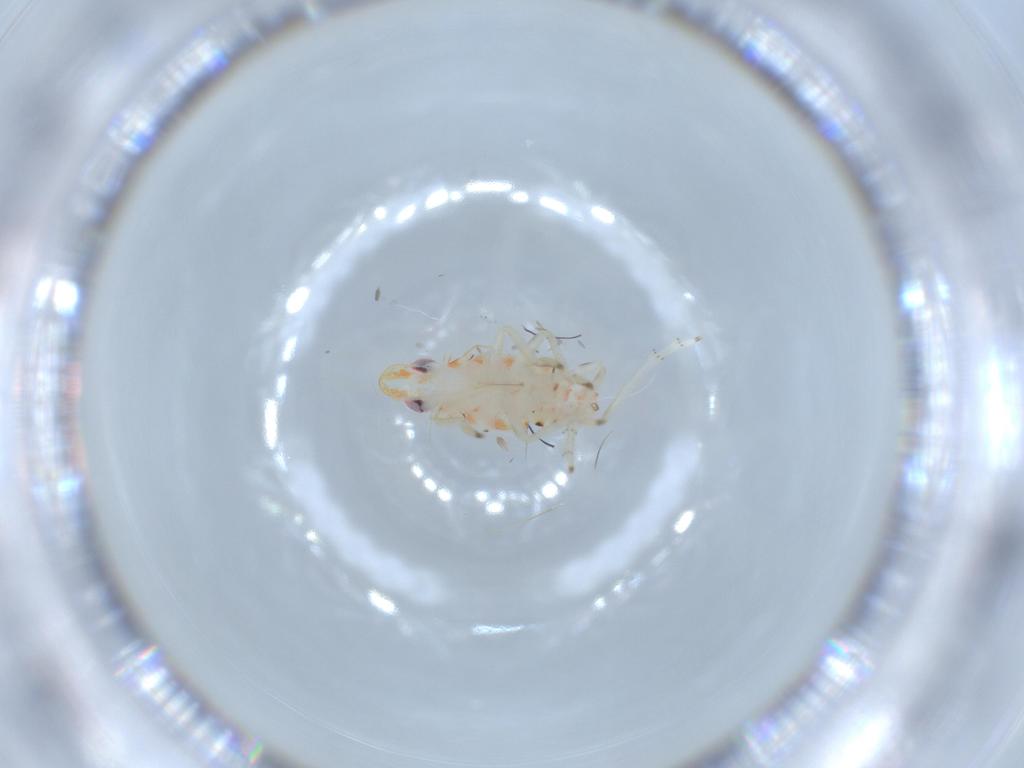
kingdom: Animalia
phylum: Arthropoda
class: Insecta
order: Hemiptera
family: Tropiduchidae
